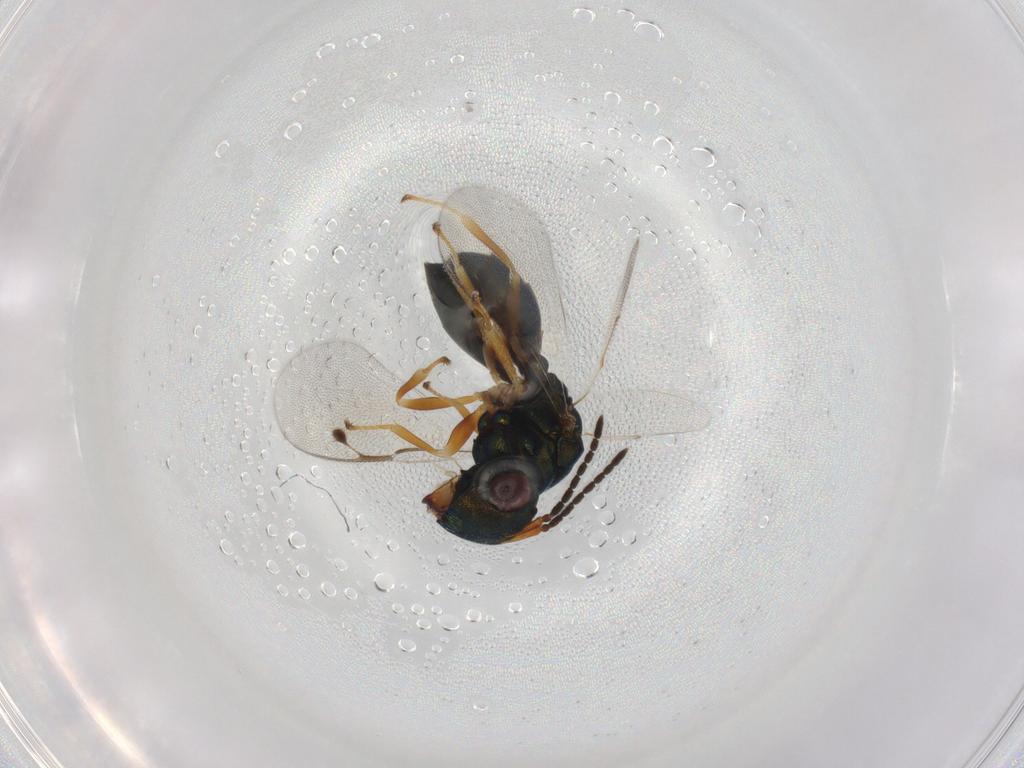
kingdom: Animalia
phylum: Arthropoda
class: Insecta
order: Hymenoptera
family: Pteromalidae
